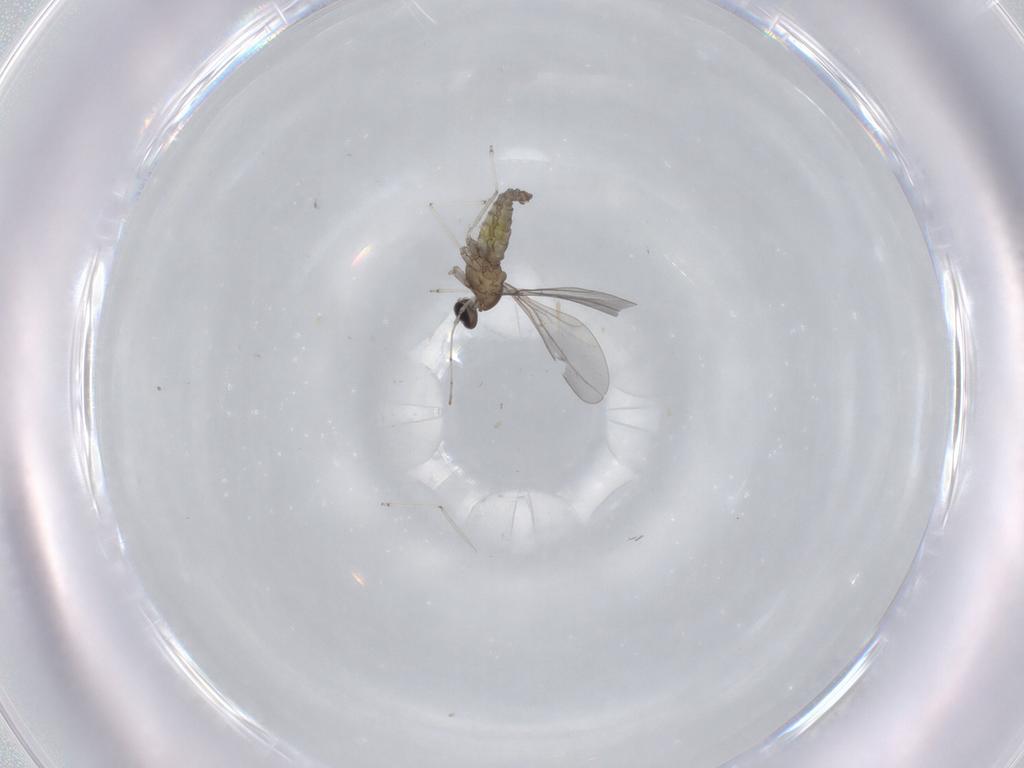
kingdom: Animalia
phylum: Arthropoda
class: Insecta
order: Diptera
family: Cecidomyiidae
